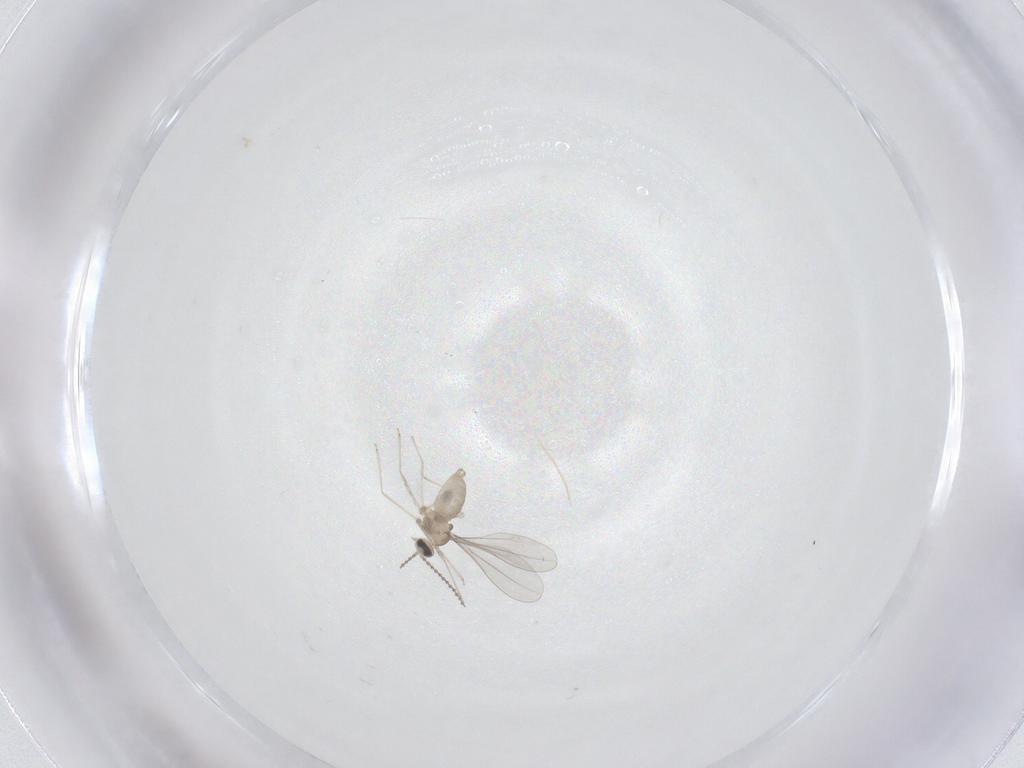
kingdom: Animalia
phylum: Arthropoda
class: Insecta
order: Diptera
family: Cecidomyiidae
